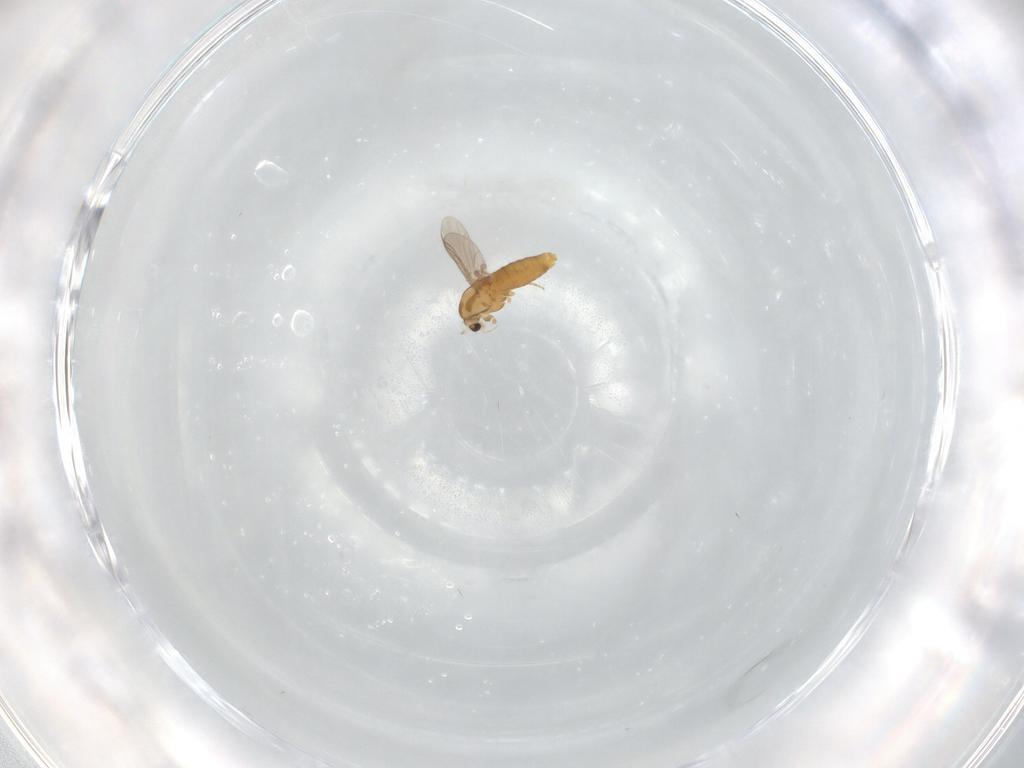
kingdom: Animalia
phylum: Arthropoda
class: Insecta
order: Diptera
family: Chironomidae
